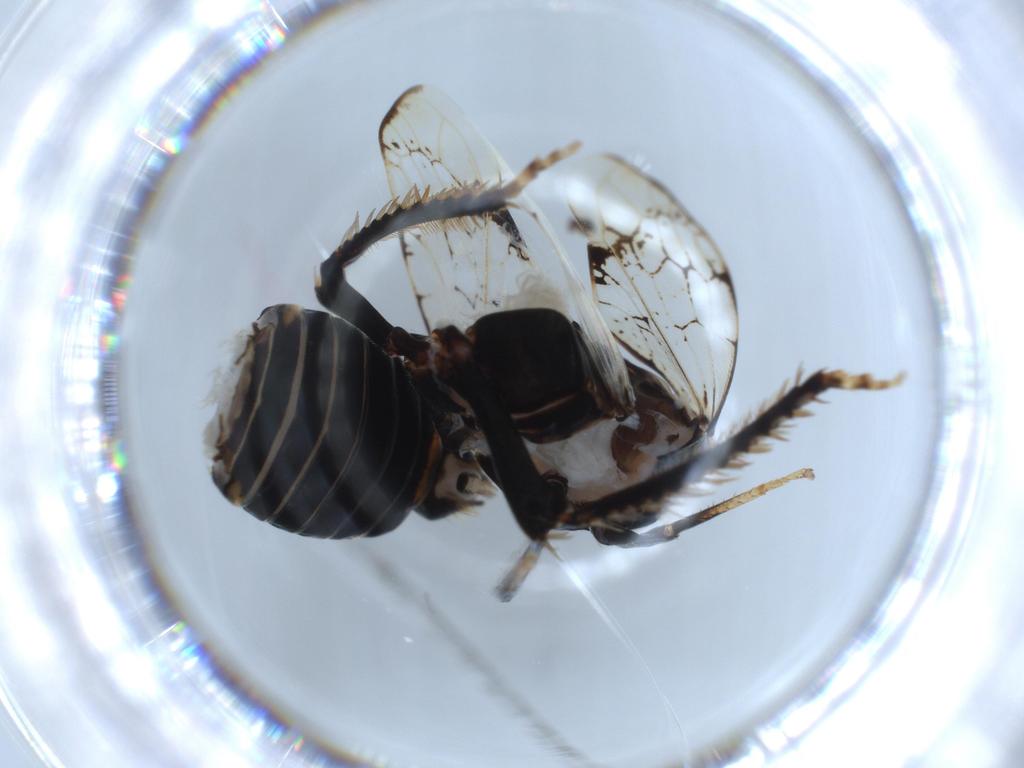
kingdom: Animalia
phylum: Arthropoda
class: Insecta
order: Hemiptera
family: Cicadellidae
